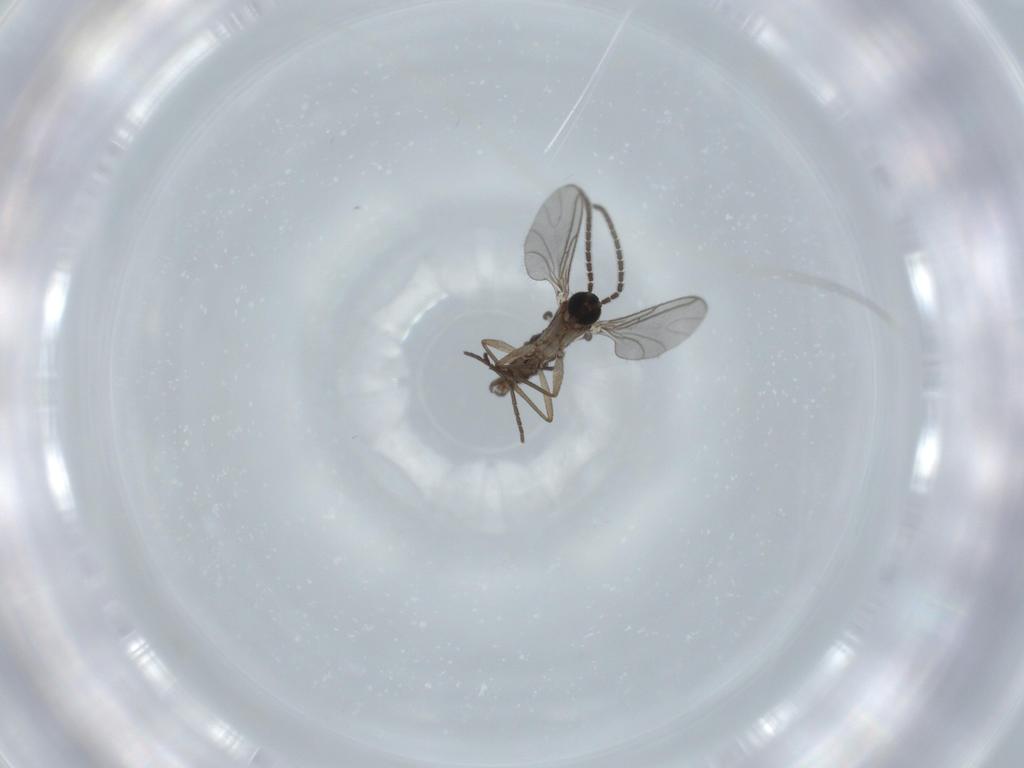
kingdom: Animalia
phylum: Arthropoda
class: Insecta
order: Diptera
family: Sciaridae
